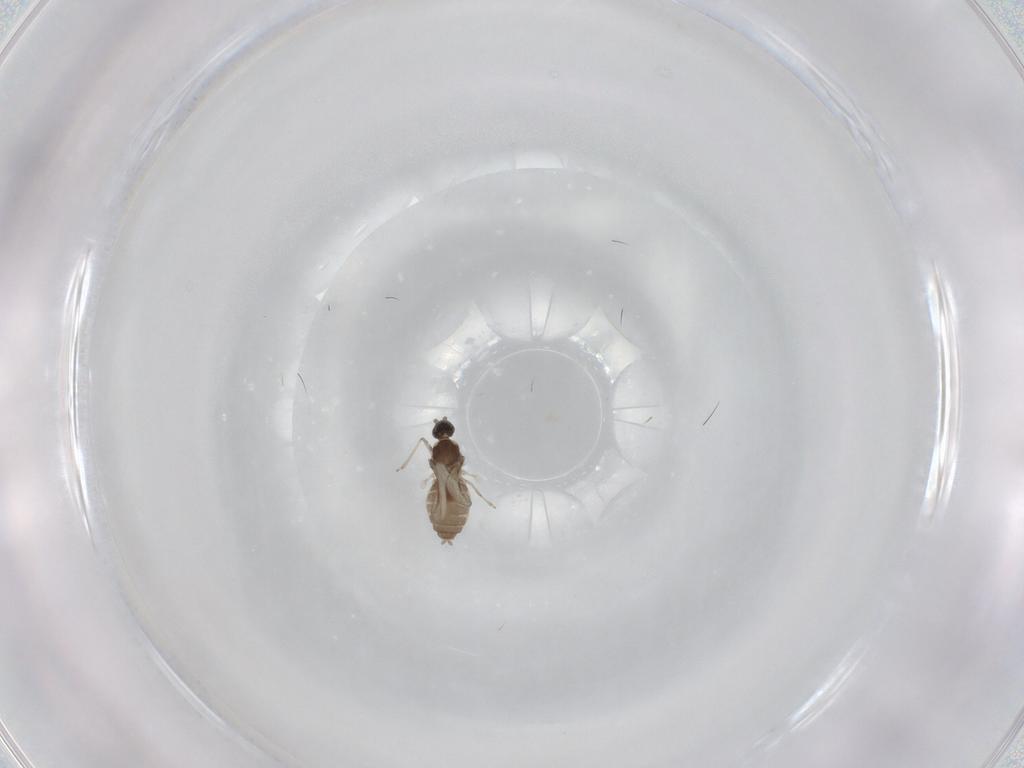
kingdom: Animalia
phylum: Arthropoda
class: Insecta
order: Diptera
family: Cecidomyiidae
